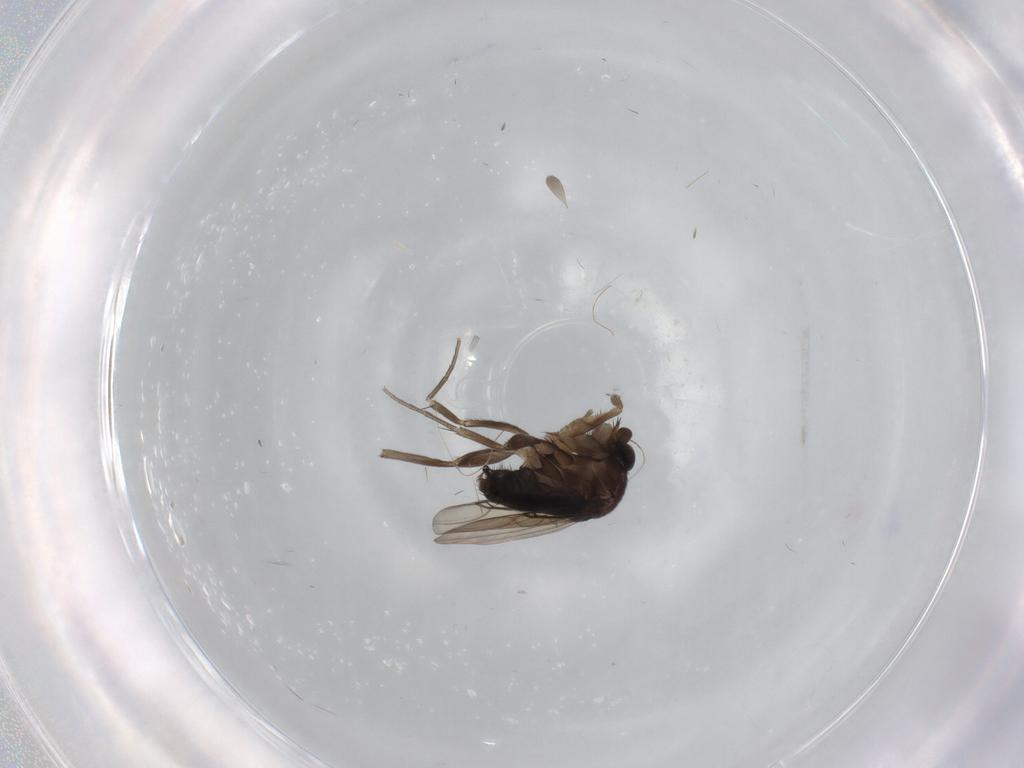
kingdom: Animalia
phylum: Arthropoda
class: Insecta
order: Diptera
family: Phoridae
